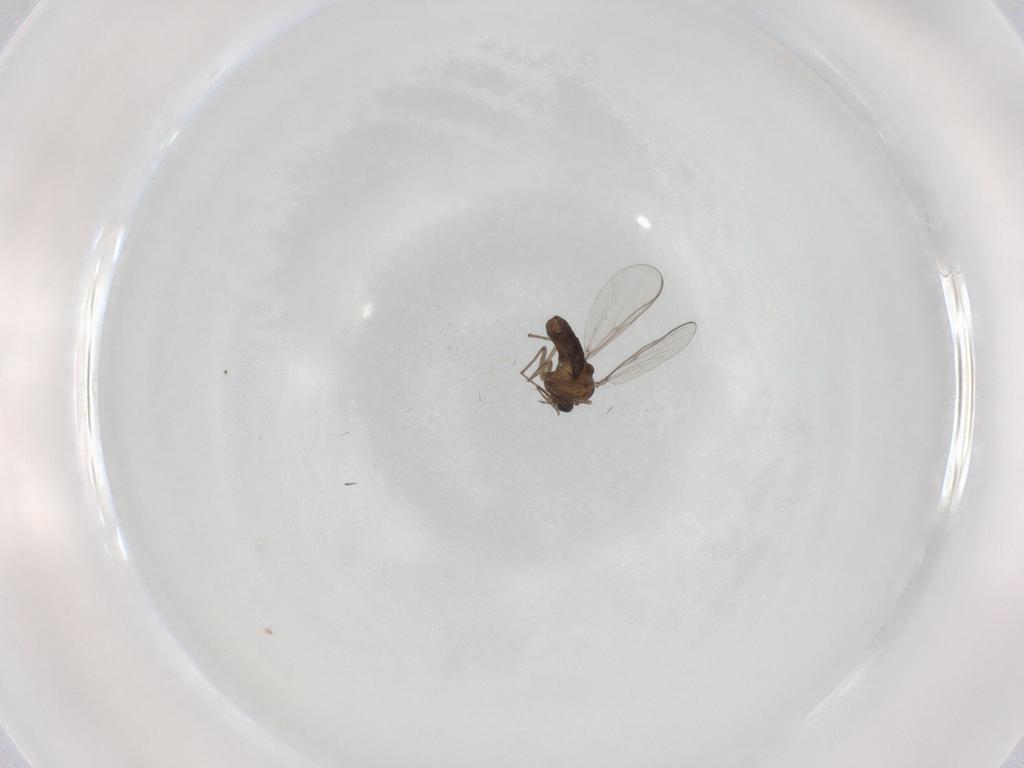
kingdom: Animalia
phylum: Arthropoda
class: Insecta
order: Diptera
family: Chironomidae
